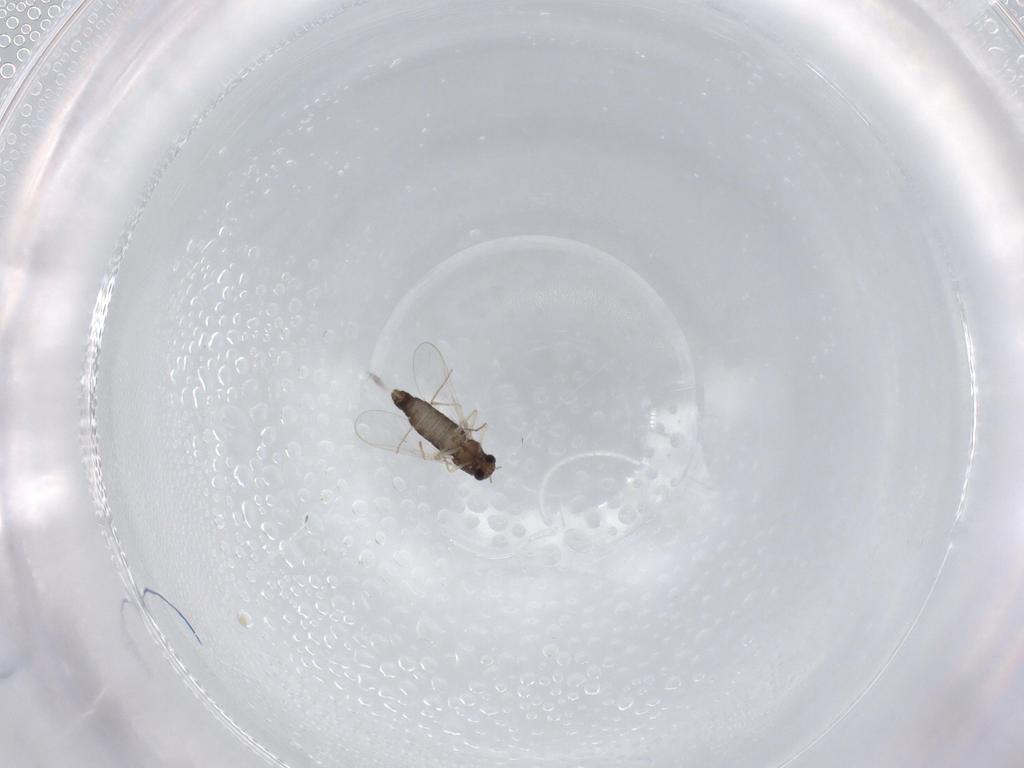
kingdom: Animalia
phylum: Arthropoda
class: Insecta
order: Diptera
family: Chironomidae
